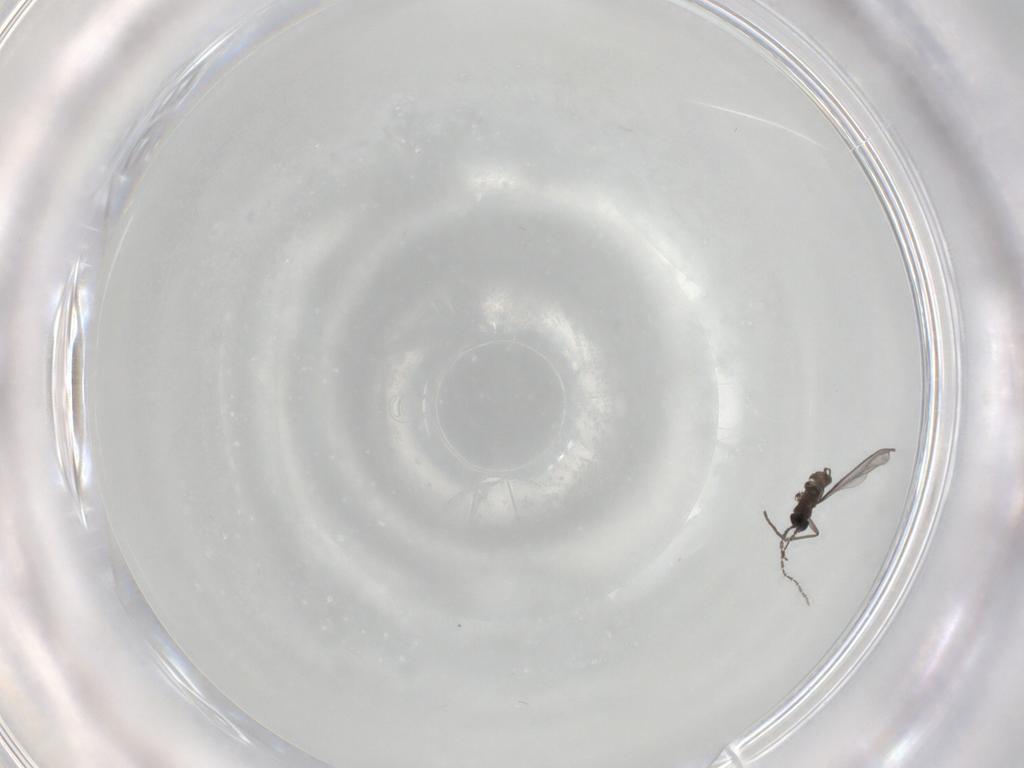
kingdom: Animalia
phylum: Arthropoda
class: Insecta
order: Diptera
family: Sciaridae
